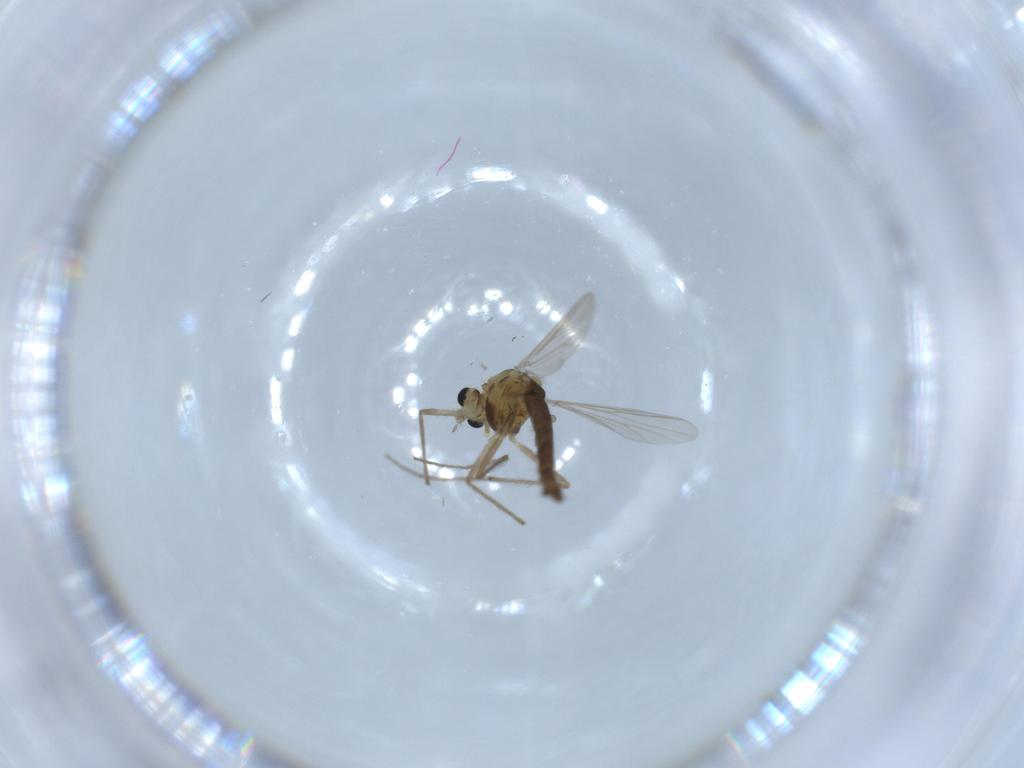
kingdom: Animalia
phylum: Arthropoda
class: Insecta
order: Diptera
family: Chironomidae
